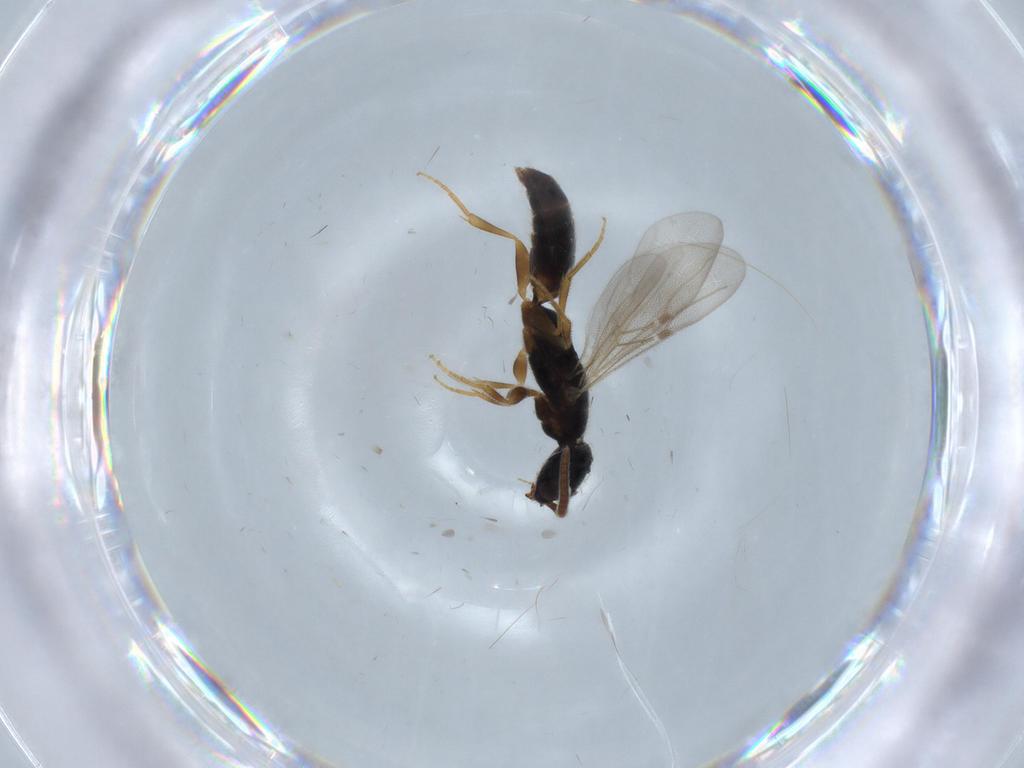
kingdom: Animalia
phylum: Arthropoda
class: Insecta
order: Hymenoptera
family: Bethylidae
